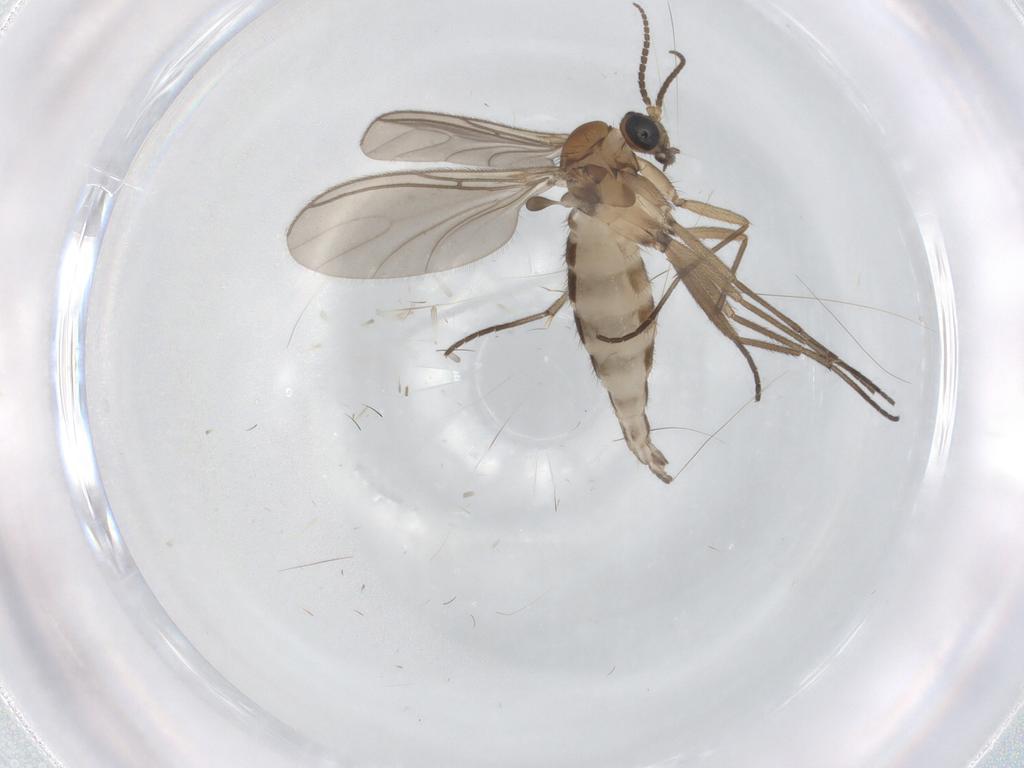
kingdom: Animalia
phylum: Arthropoda
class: Insecta
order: Diptera
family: Sciaridae
